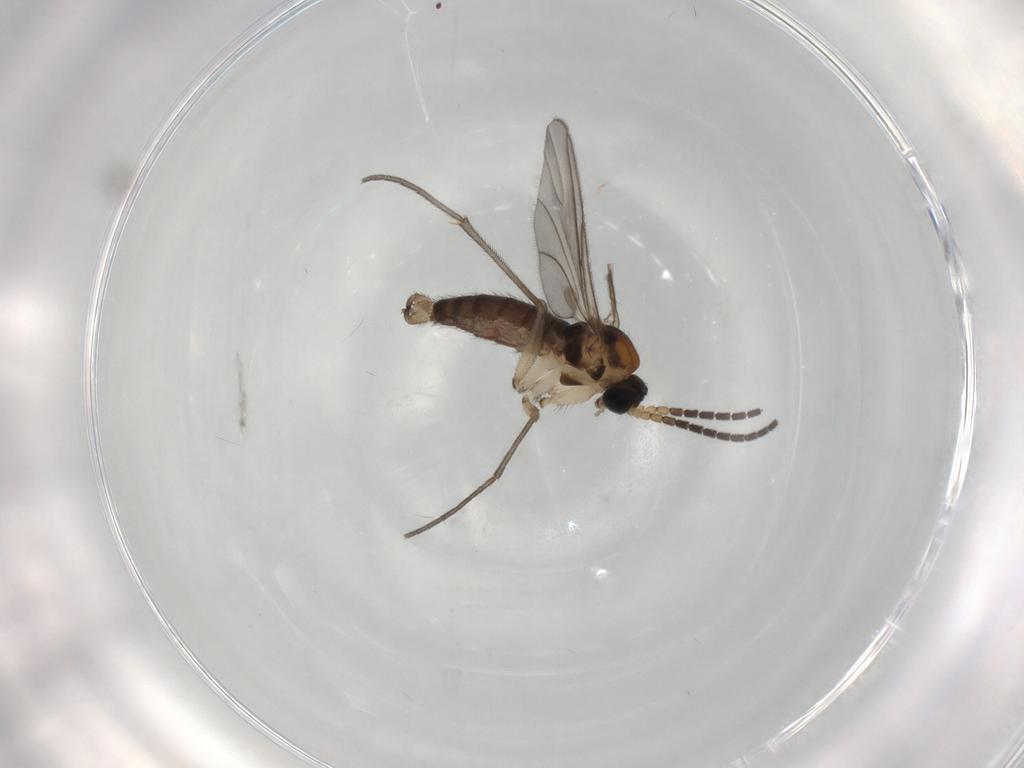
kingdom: Animalia
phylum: Arthropoda
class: Insecta
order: Diptera
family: Sciaridae
